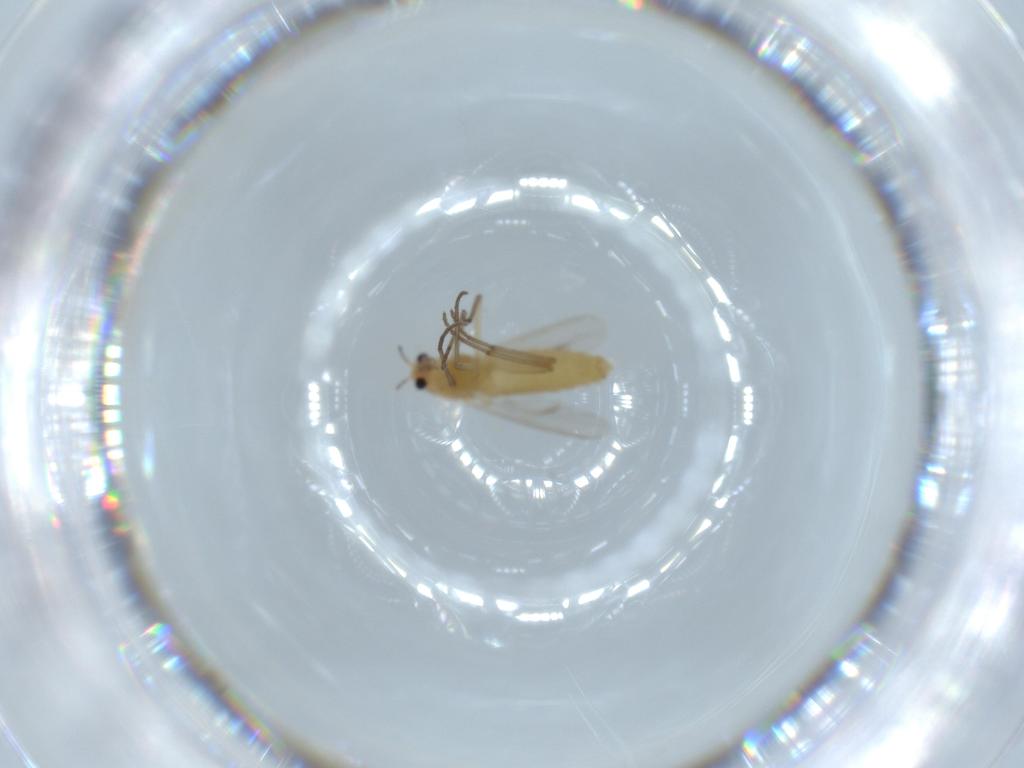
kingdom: Animalia
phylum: Arthropoda
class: Insecta
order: Diptera
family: Chironomidae
